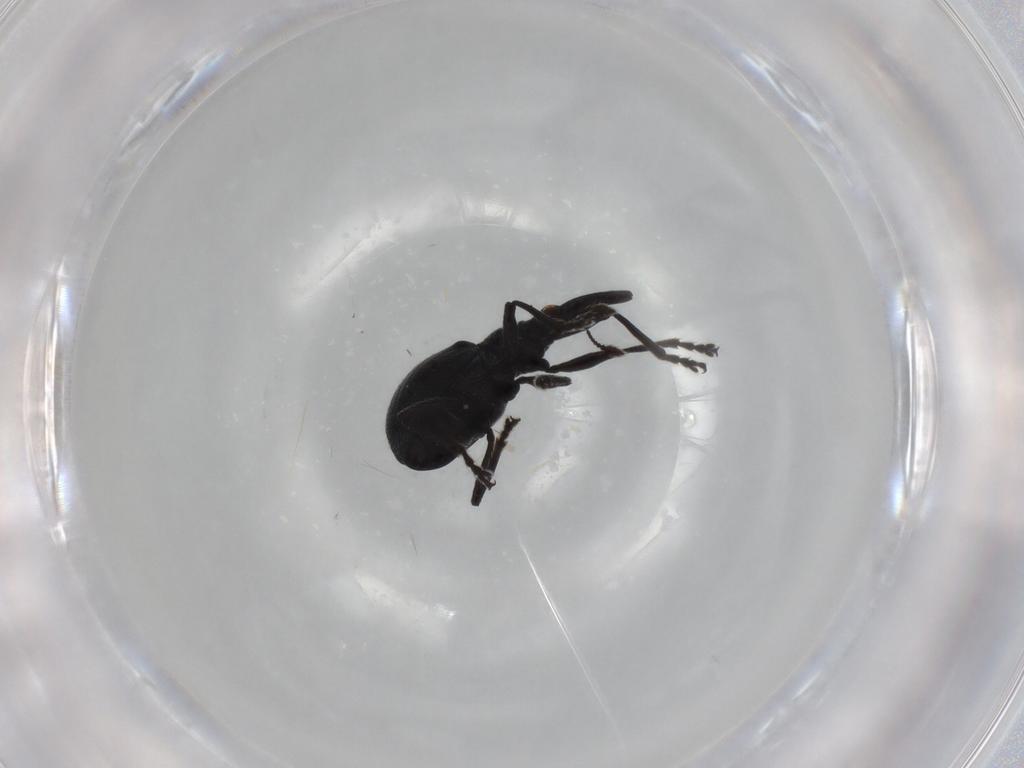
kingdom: Animalia
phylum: Arthropoda
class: Insecta
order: Coleoptera
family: Brentidae
